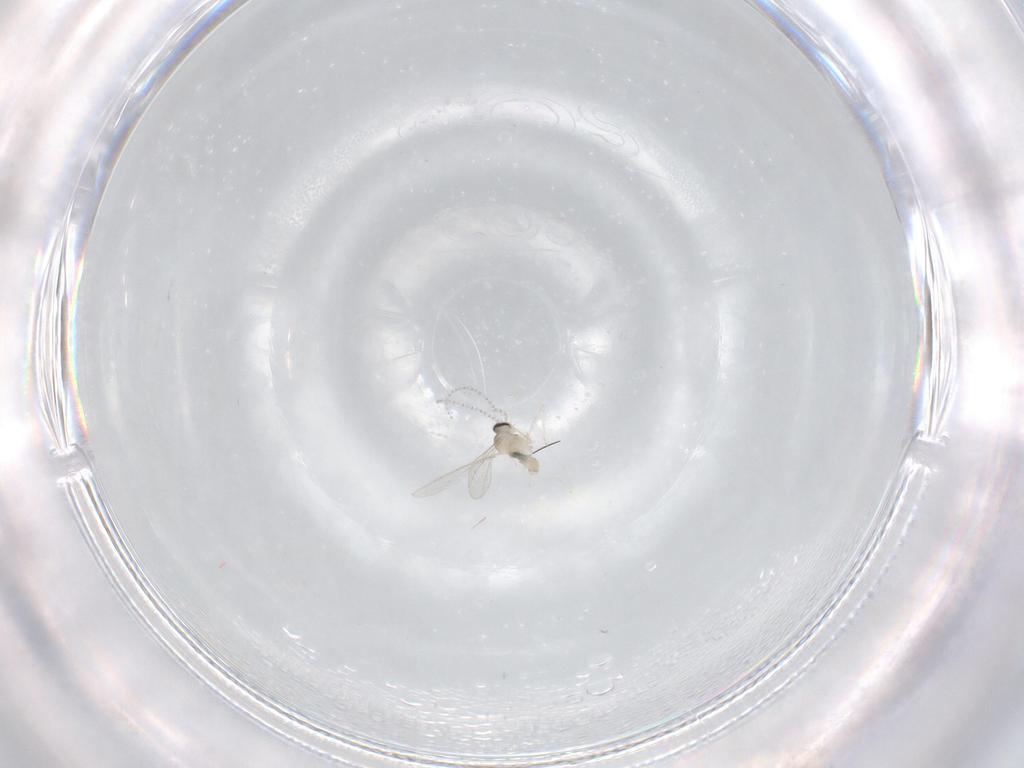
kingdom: Animalia
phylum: Arthropoda
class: Insecta
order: Diptera
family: Cecidomyiidae
